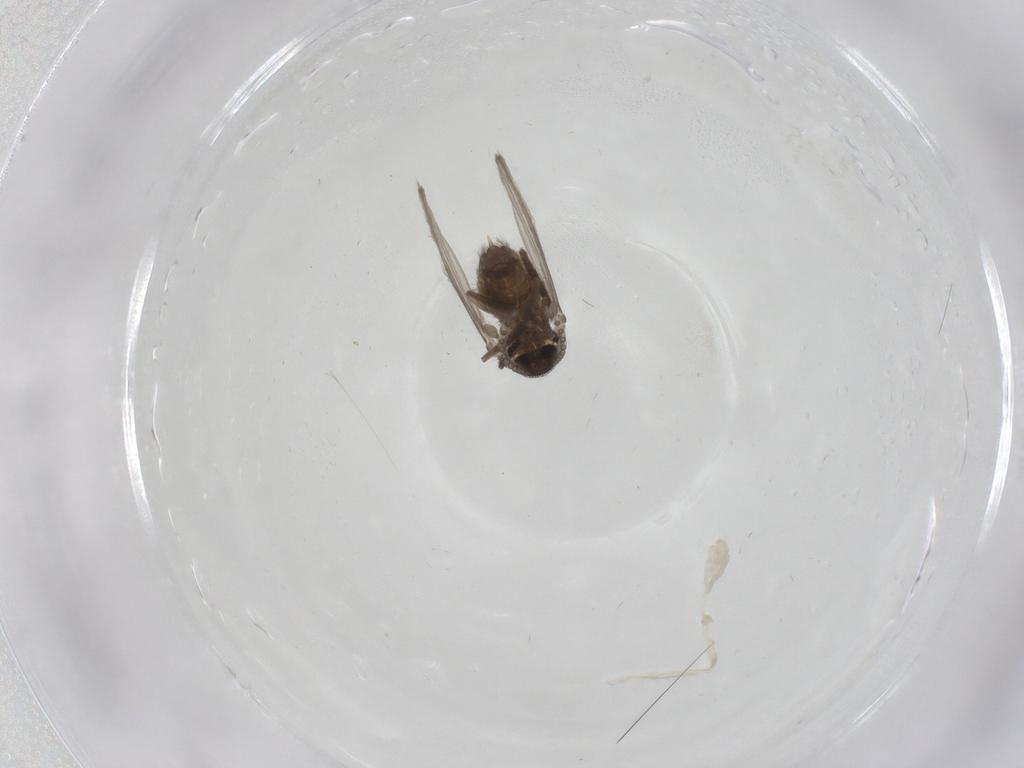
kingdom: Animalia
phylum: Arthropoda
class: Insecta
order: Diptera
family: Psychodidae
